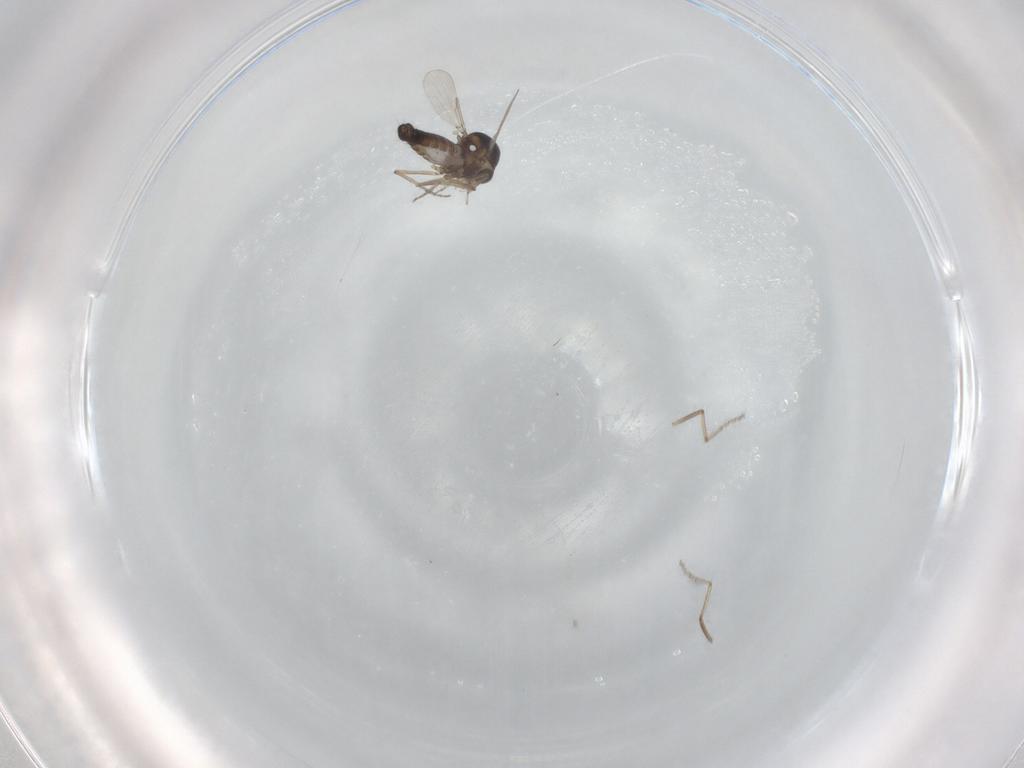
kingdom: Animalia
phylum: Arthropoda
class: Insecta
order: Diptera
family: Ceratopogonidae
